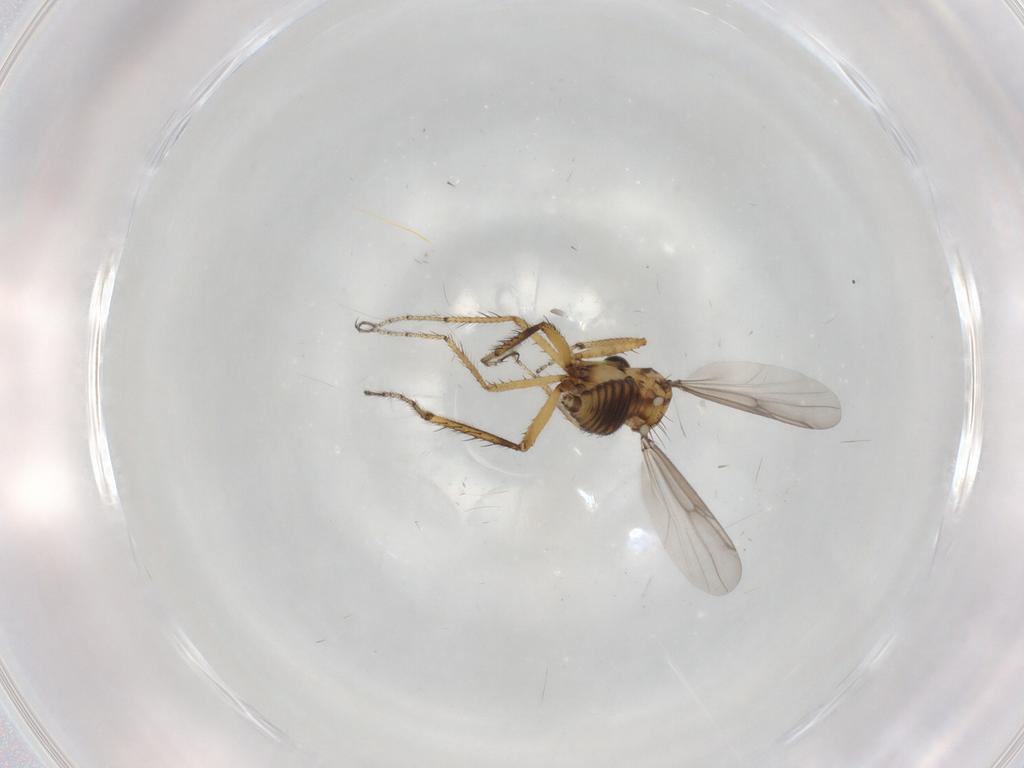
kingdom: Animalia
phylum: Arthropoda
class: Insecta
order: Diptera
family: Ceratopogonidae
